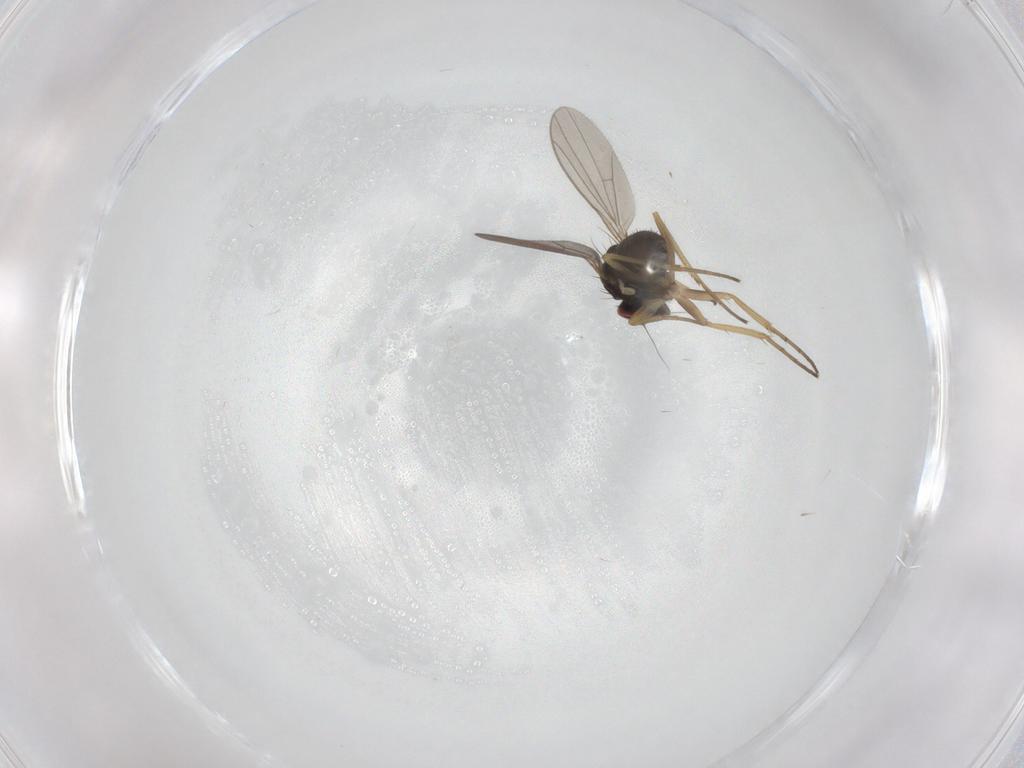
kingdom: Animalia
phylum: Arthropoda
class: Insecta
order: Diptera
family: Dolichopodidae
